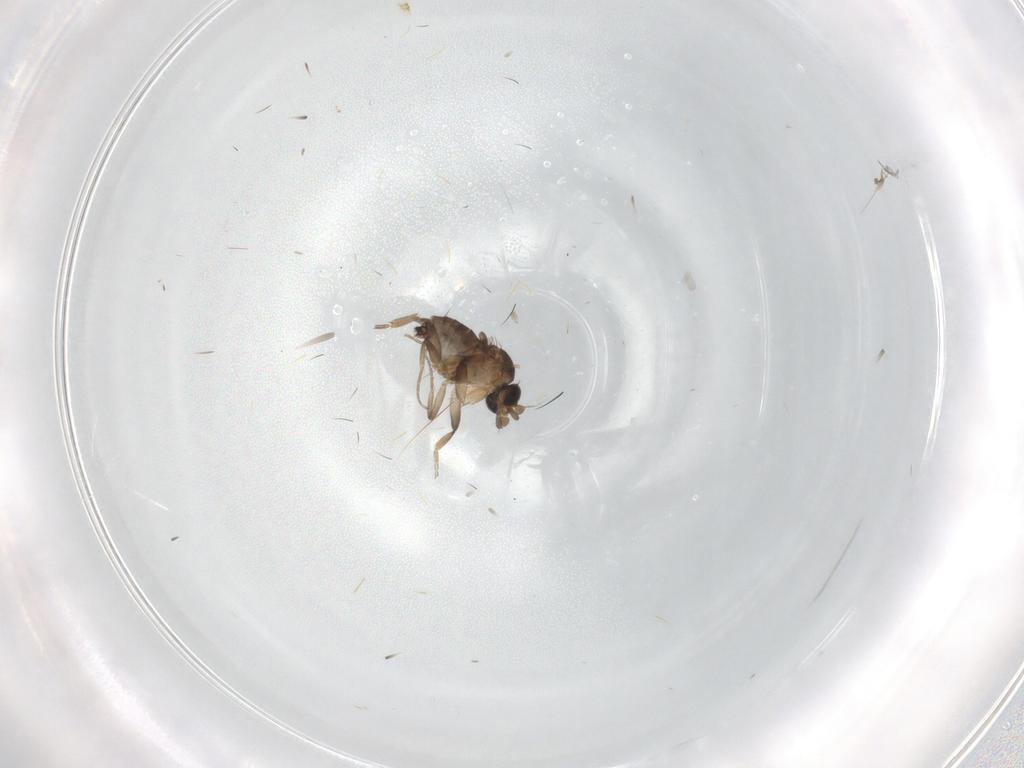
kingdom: Animalia
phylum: Arthropoda
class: Insecta
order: Diptera
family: Phoridae
